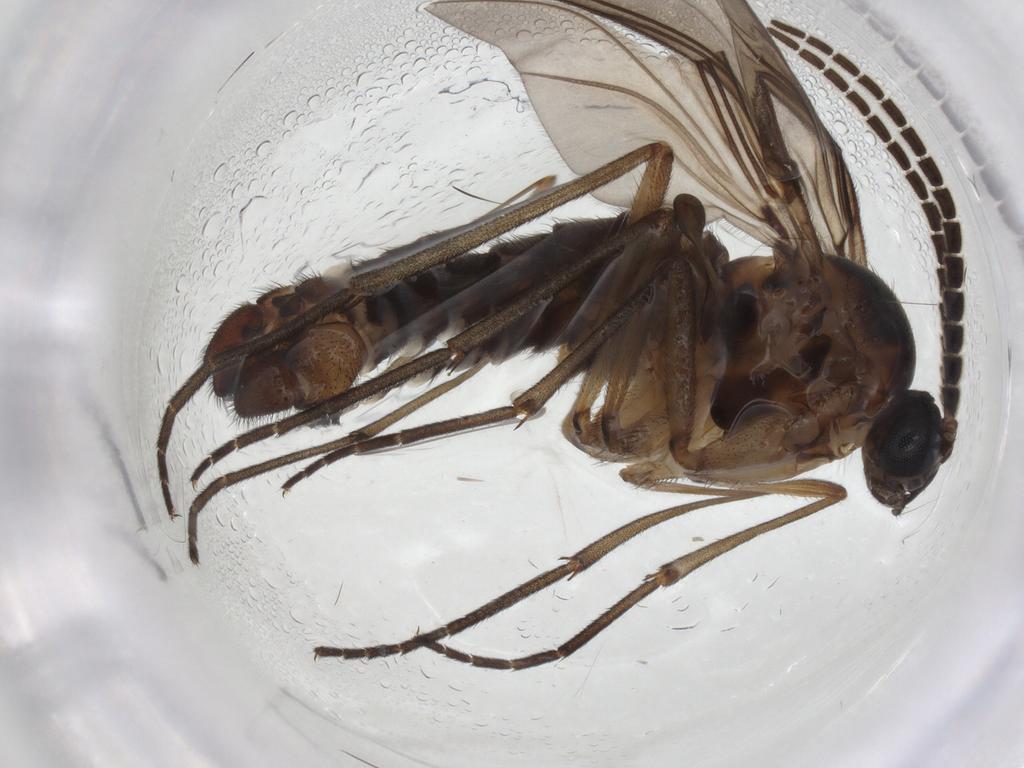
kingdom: Animalia
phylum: Arthropoda
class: Insecta
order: Diptera
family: Sciaridae
